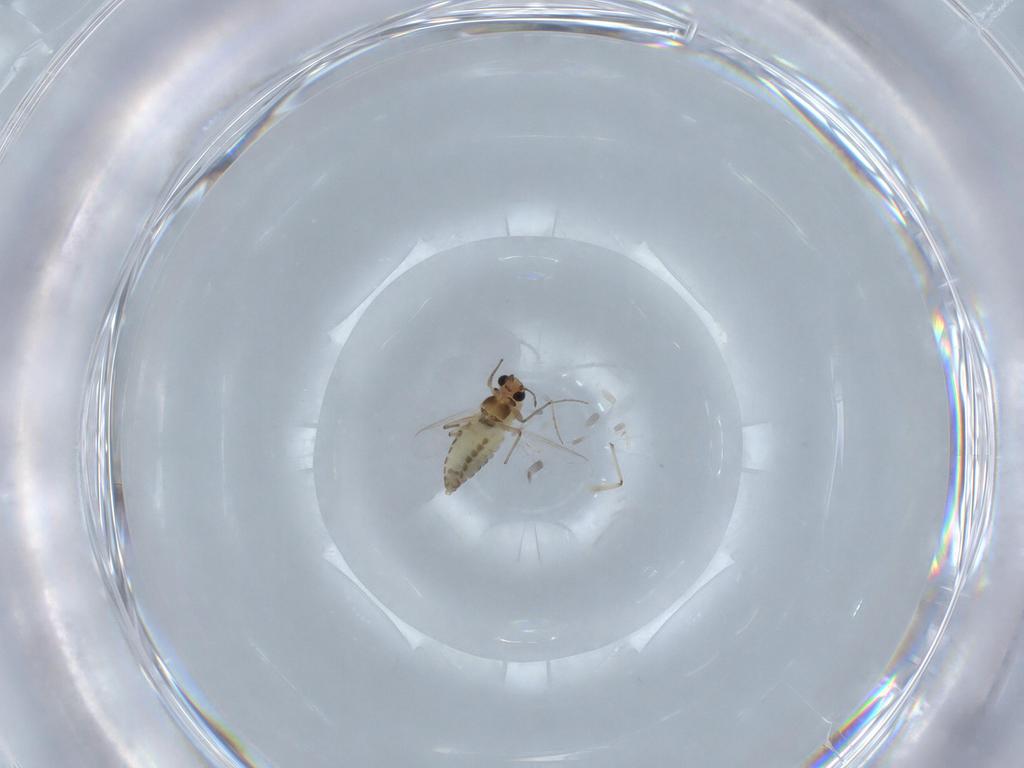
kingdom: Animalia
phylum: Arthropoda
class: Insecta
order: Diptera
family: Chironomidae
